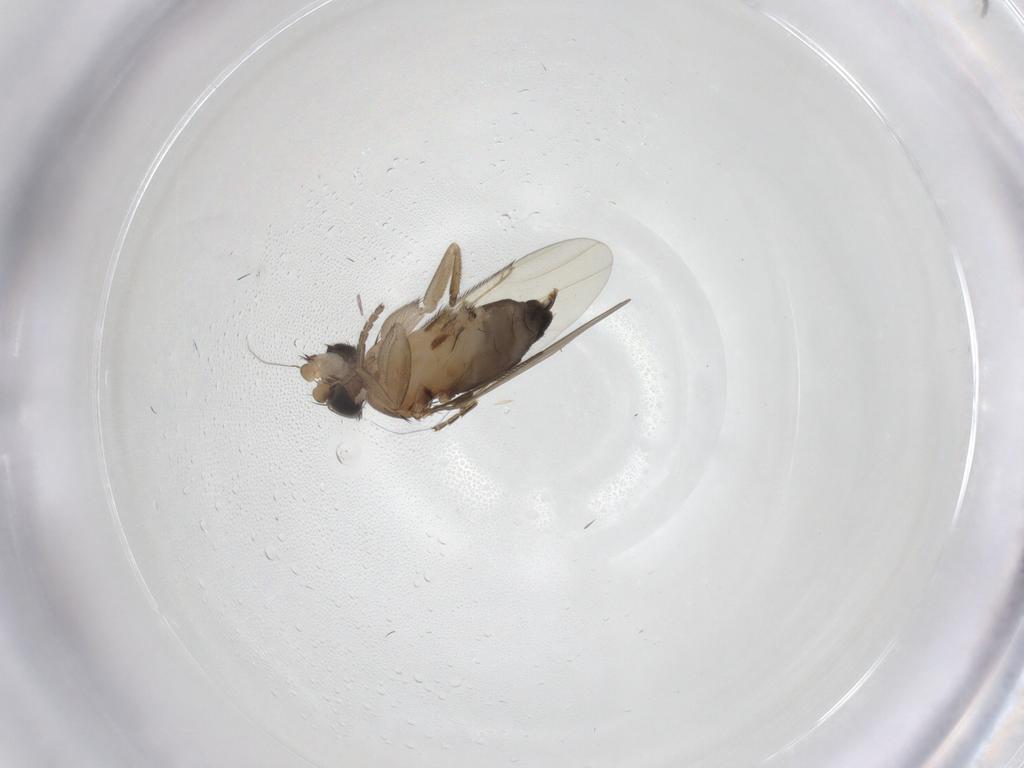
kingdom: Animalia
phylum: Arthropoda
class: Insecta
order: Diptera
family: Phoridae
